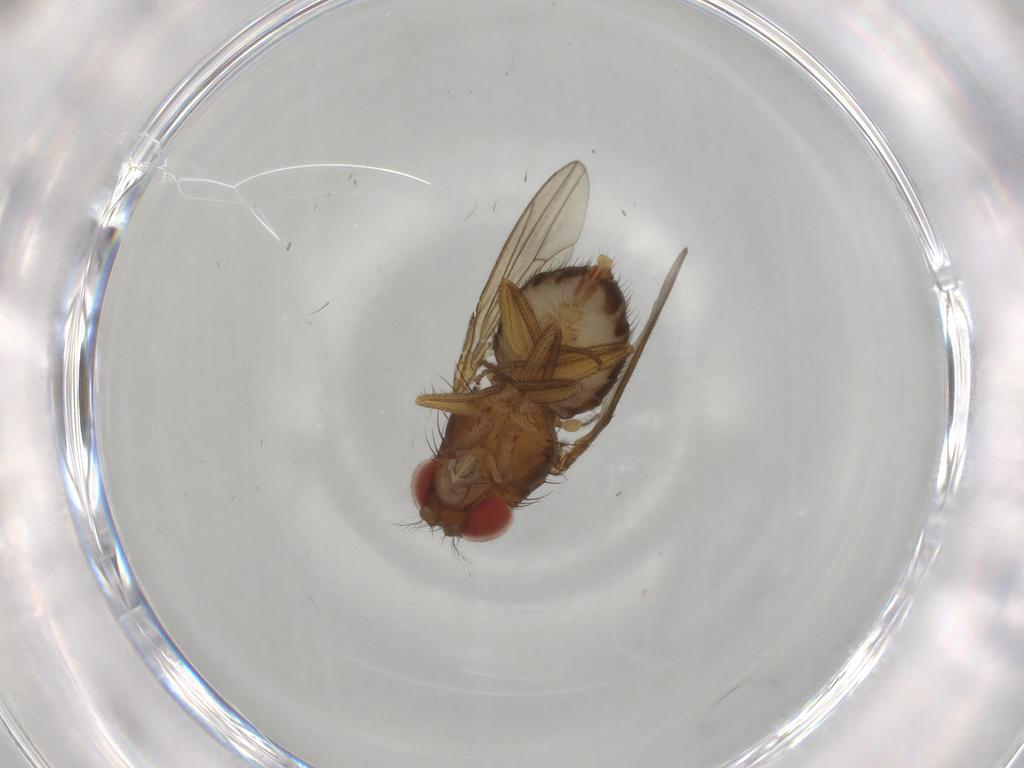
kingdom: Animalia
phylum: Arthropoda
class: Insecta
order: Diptera
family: Drosophilidae
